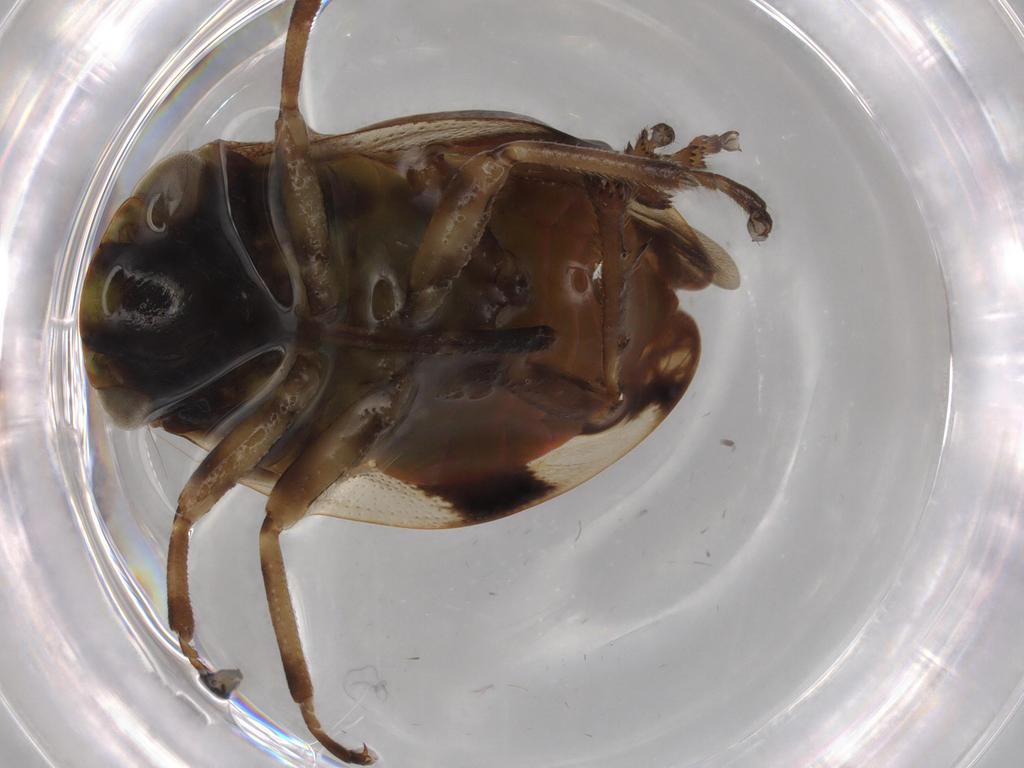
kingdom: Animalia
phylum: Arthropoda
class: Insecta
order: Hemiptera
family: Aphrophoridae
